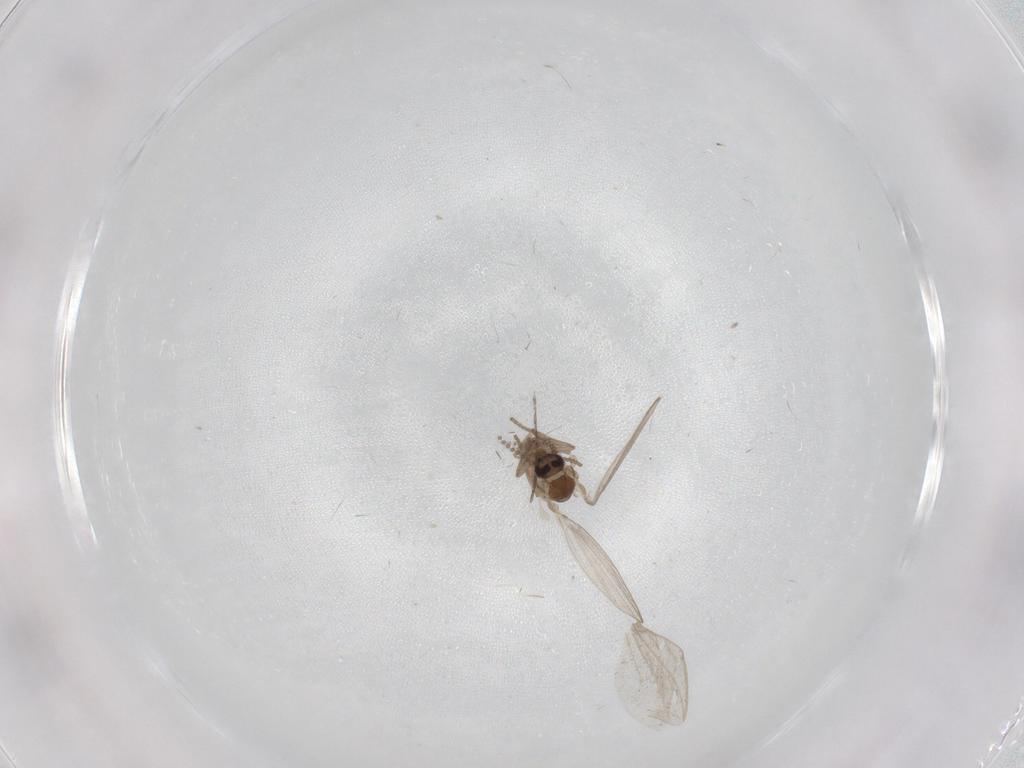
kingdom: Animalia
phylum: Arthropoda
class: Insecta
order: Diptera
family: Psychodidae
